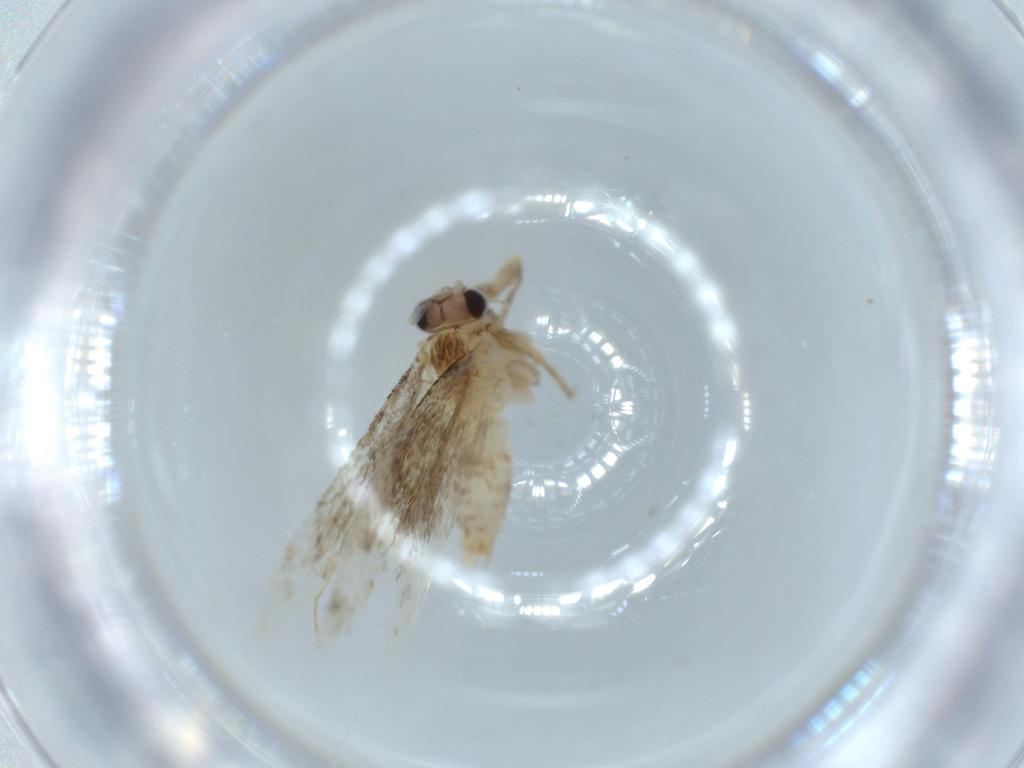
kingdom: Animalia
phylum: Arthropoda
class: Insecta
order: Lepidoptera
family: Tineidae
